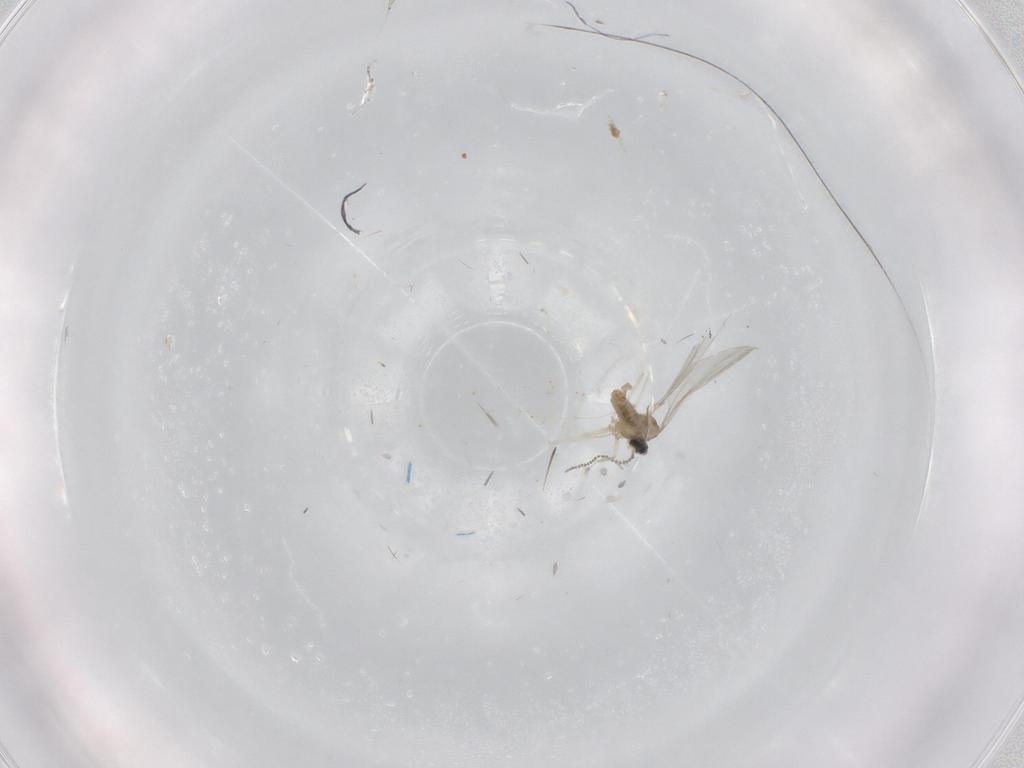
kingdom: Animalia
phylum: Arthropoda
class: Insecta
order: Diptera
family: Cecidomyiidae
